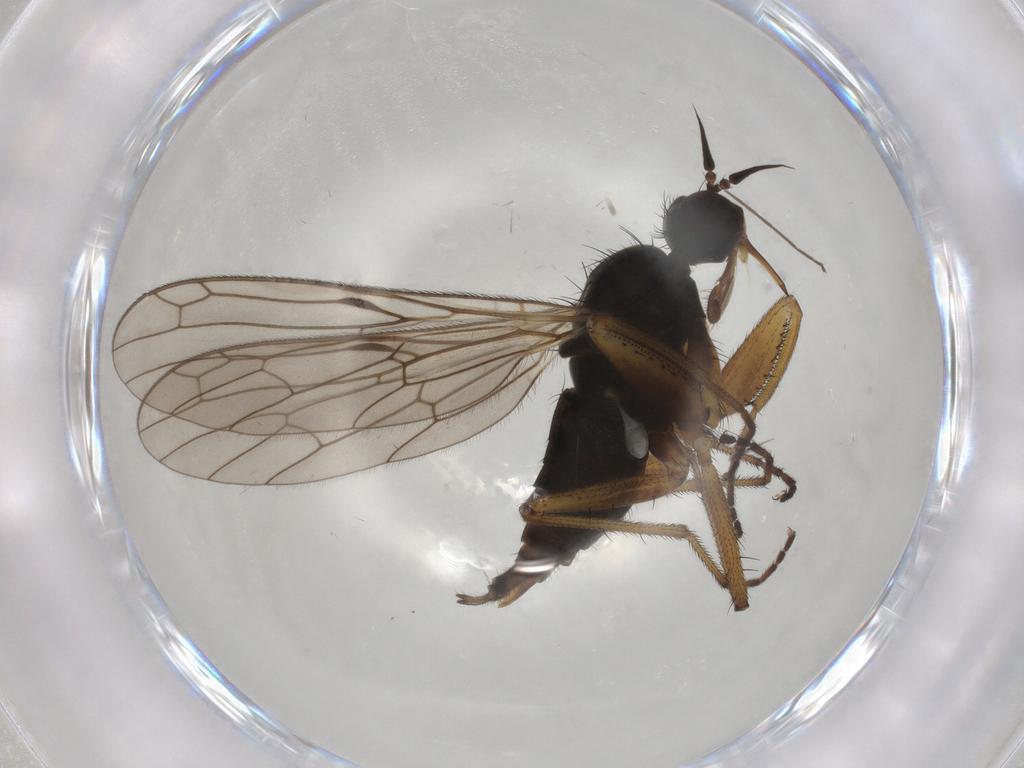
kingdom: Animalia
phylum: Arthropoda
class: Insecta
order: Diptera
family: Empididae
